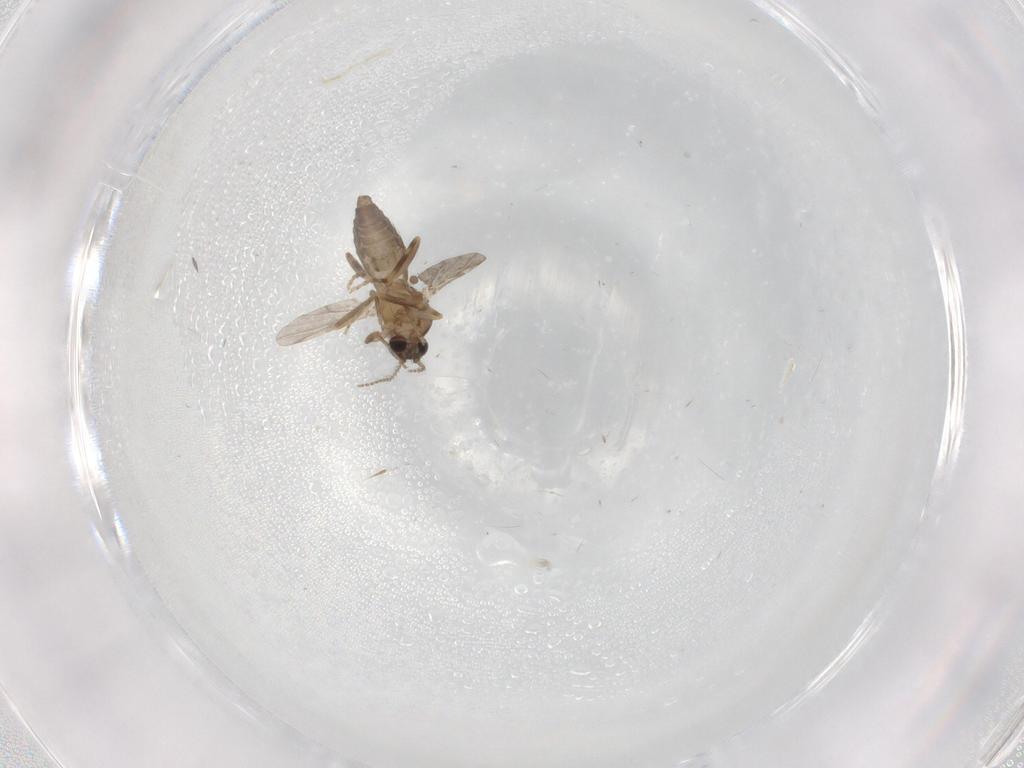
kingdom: Animalia
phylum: Arthropoda
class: Insecta
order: Diptera
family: Ceratopogonidae
